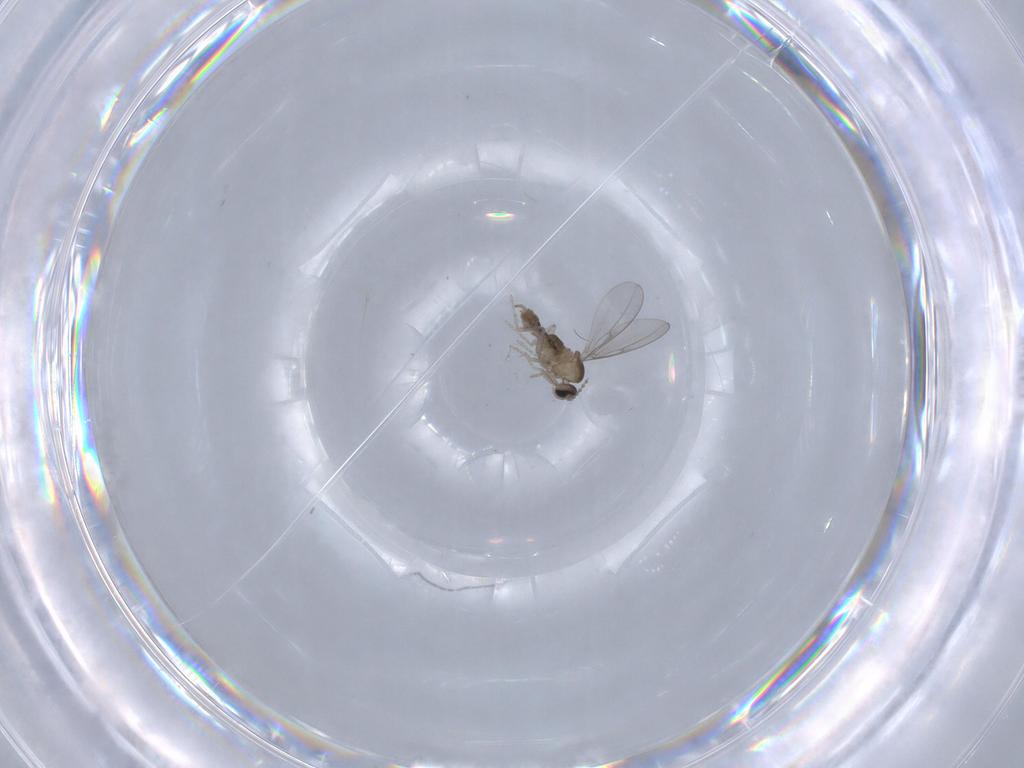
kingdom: Animalia
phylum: Arthropoda
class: Insecta
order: Diptera
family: Cecidomyiidae
